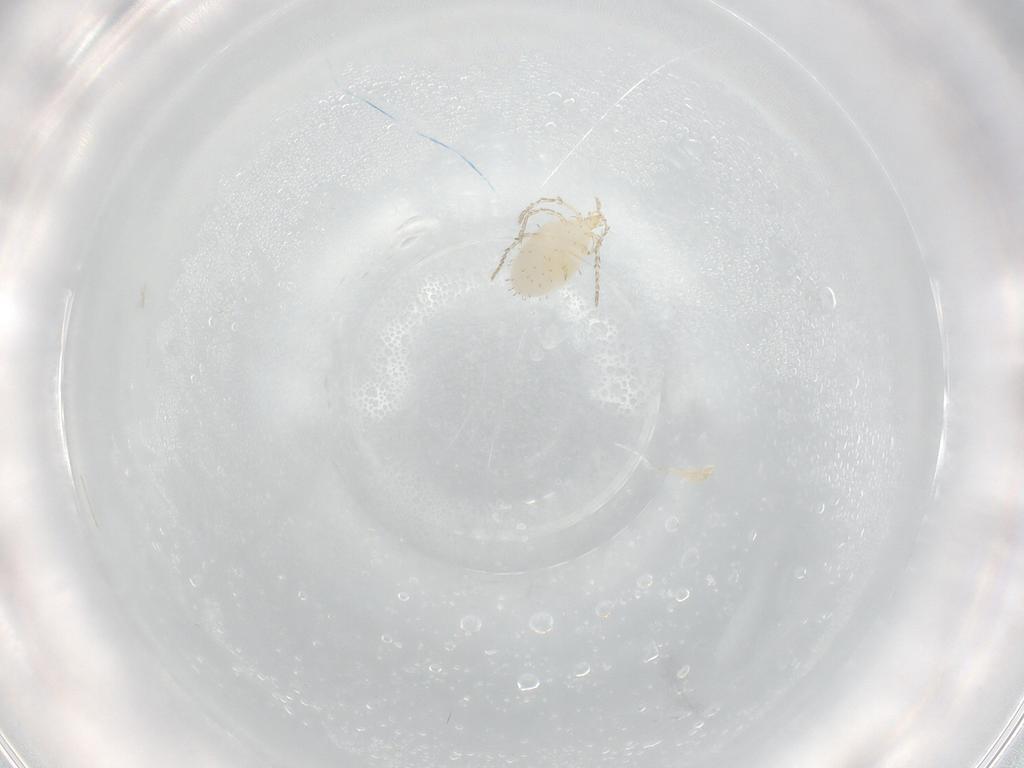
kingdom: Animalia
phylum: Arthropoda
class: Arachnida
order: Trombidiformes
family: Erythraeidae
